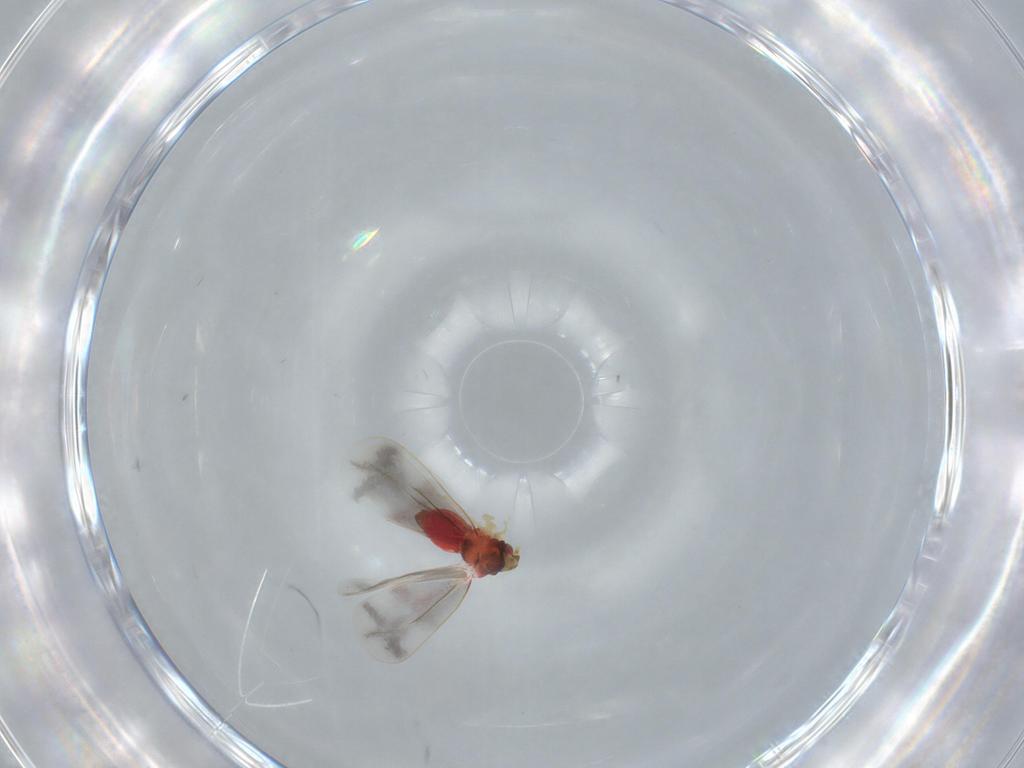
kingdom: Animalia
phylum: Arthropoda
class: Insecta
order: Hemiptera
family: Aleyrodidae
